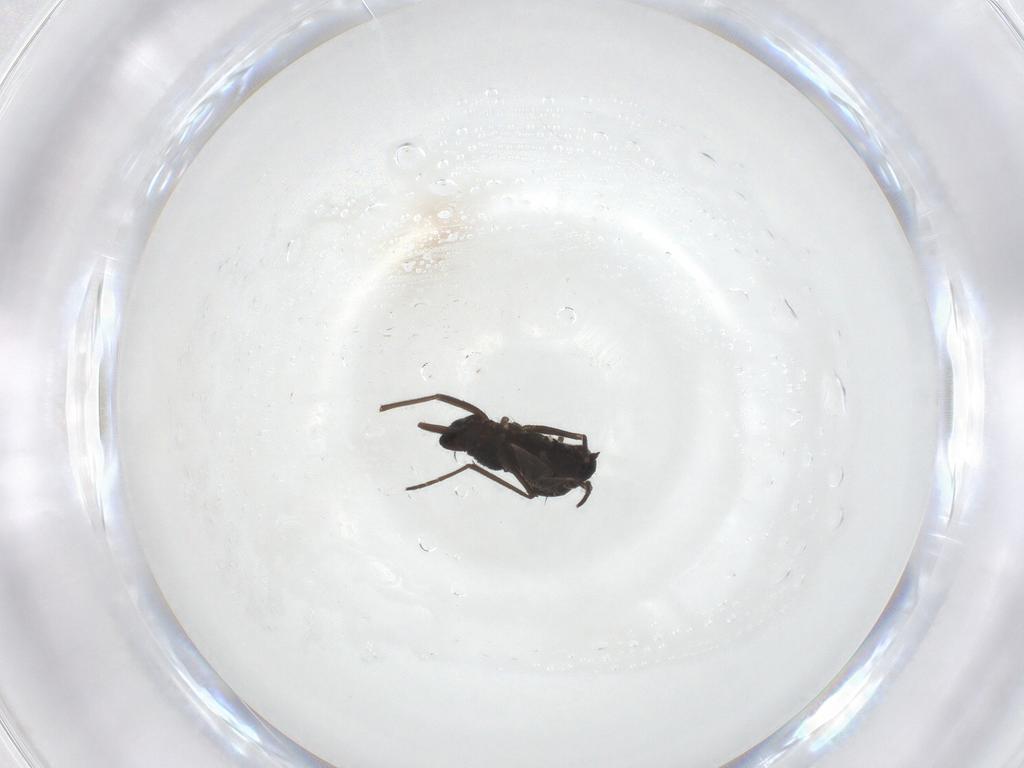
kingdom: Animalia
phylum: Arthropoda
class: Insecta
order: Diptera
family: Dolichopodidae
